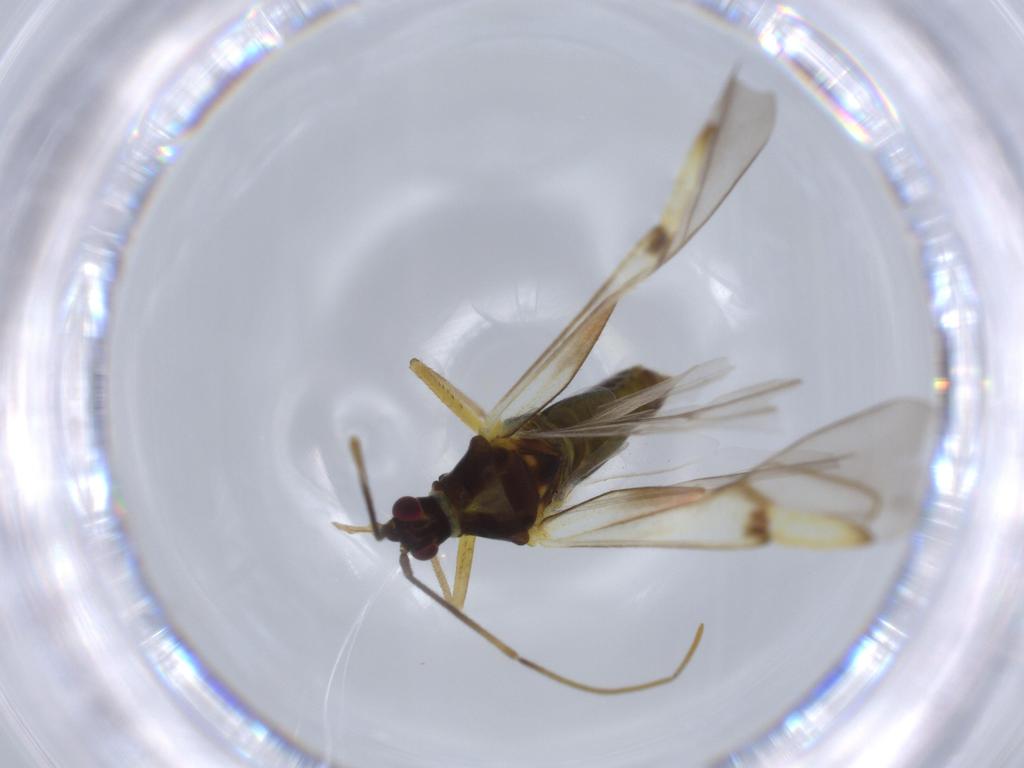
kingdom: Animalia
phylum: Arthropoda
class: Insecta
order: Hemiptera
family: Miridae
